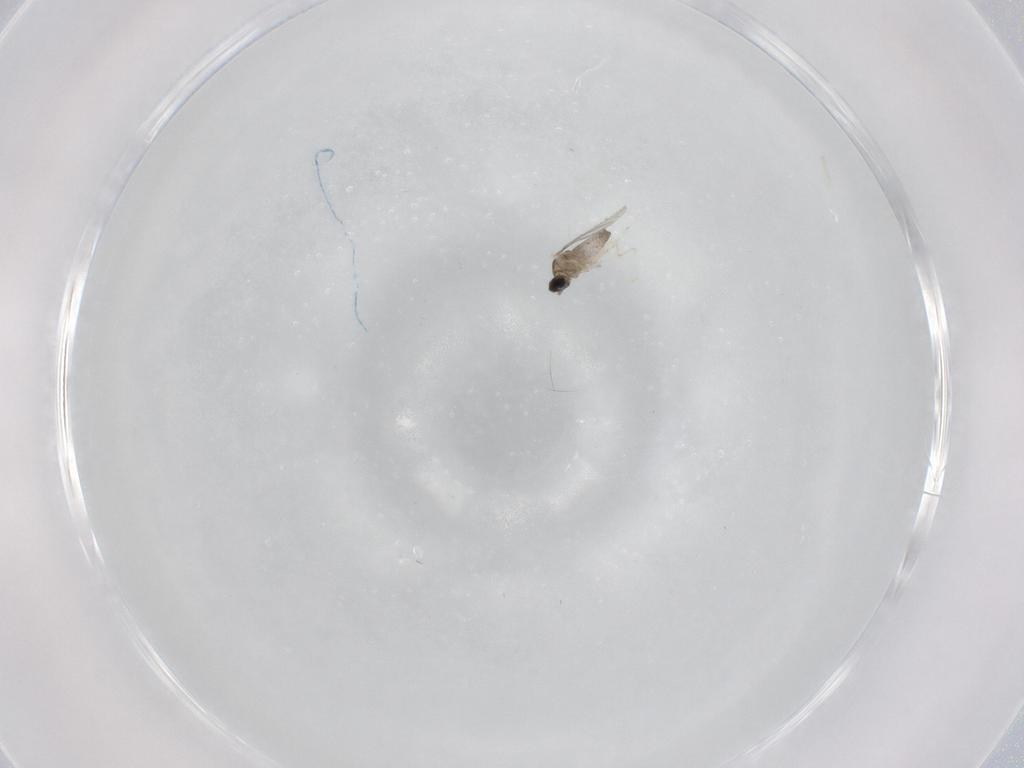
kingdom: Animalia
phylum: Arthropoda
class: Insecta
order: Diptera
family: Cecidomyiidae
